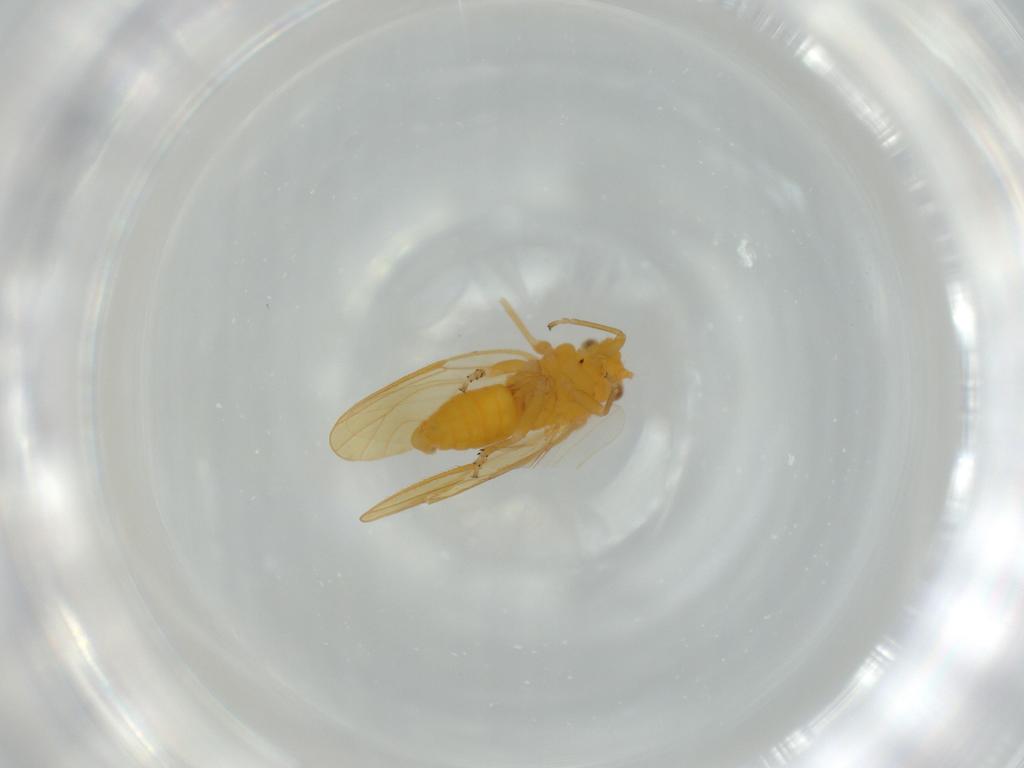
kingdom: Animalia
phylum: Arthropoda
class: Insecta
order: Hemiptera
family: Psyllidae
